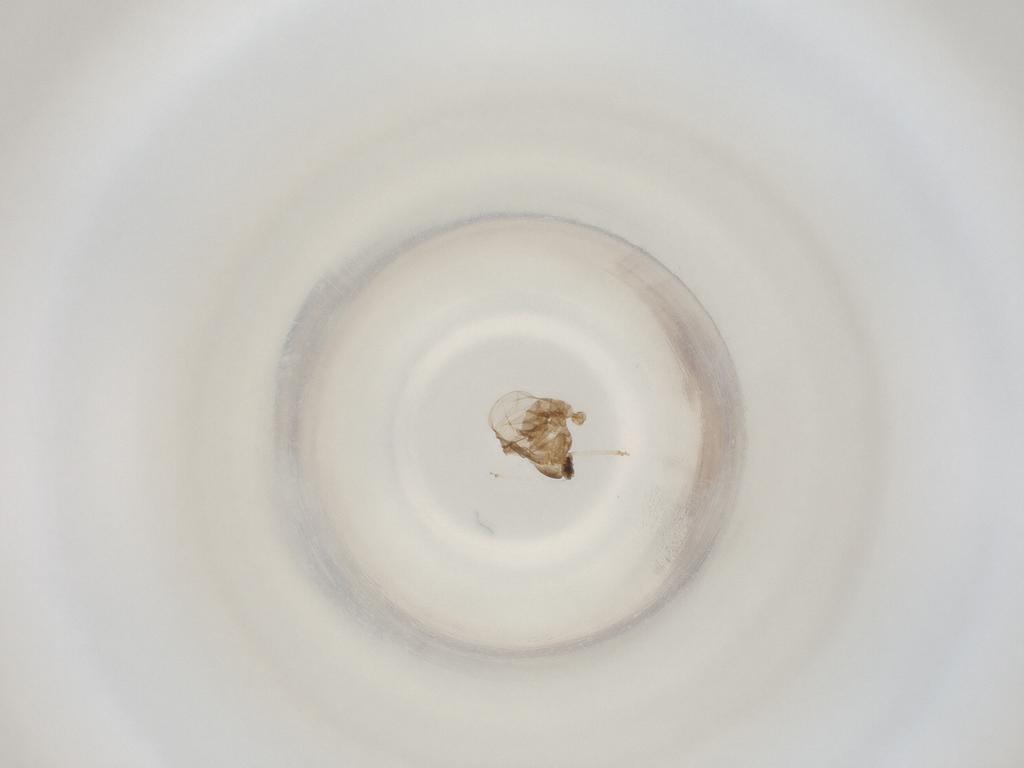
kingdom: Animalia
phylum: Arthropoda
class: Insecta
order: Diptera
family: Cecidomyiidae
